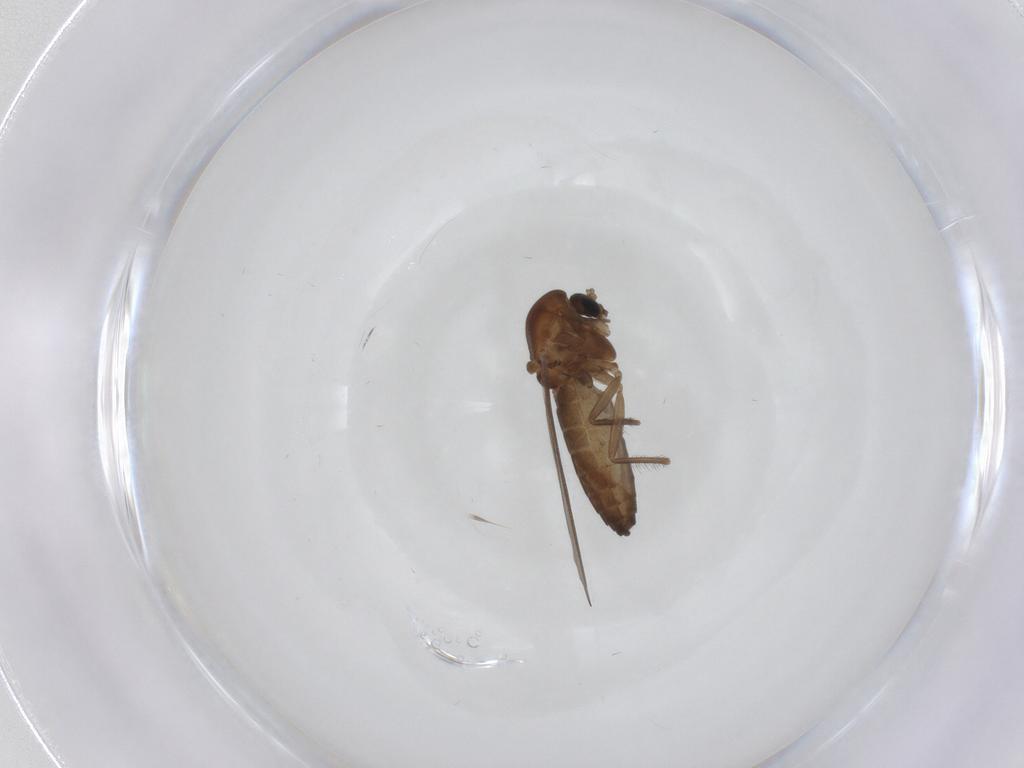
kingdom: Animalia
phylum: Arthropoda
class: Insecta
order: Diptera
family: Chironomidae
